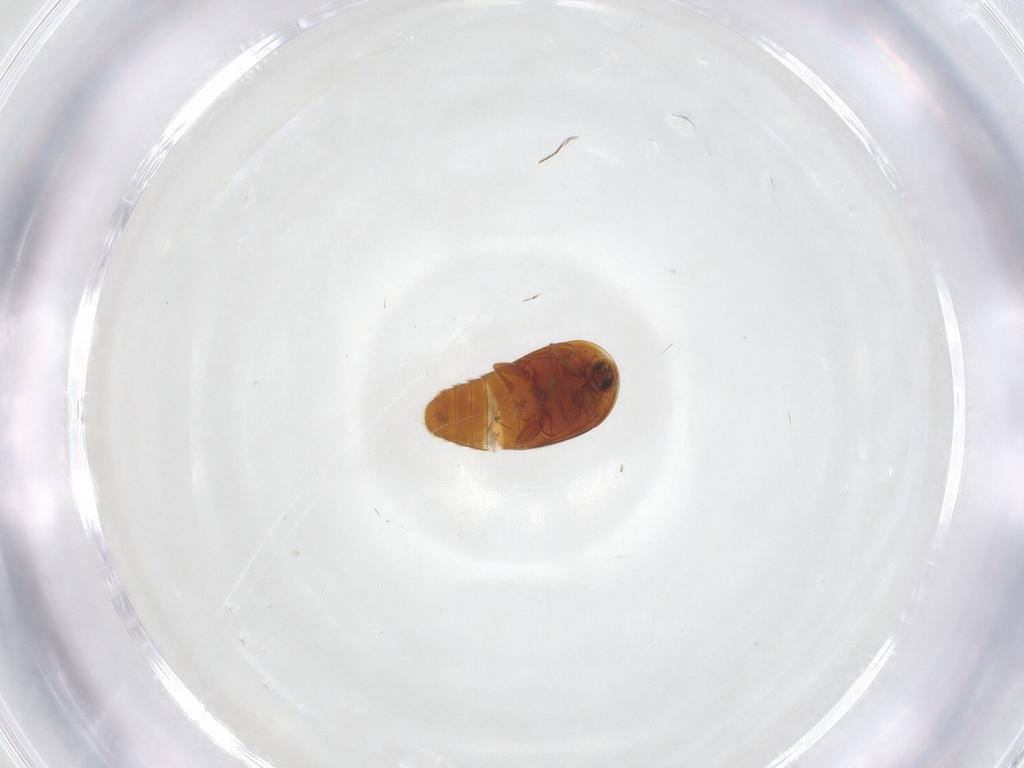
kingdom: Animalia
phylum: Arthropoda
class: Insecta
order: Coleoptera
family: Corylophidae
